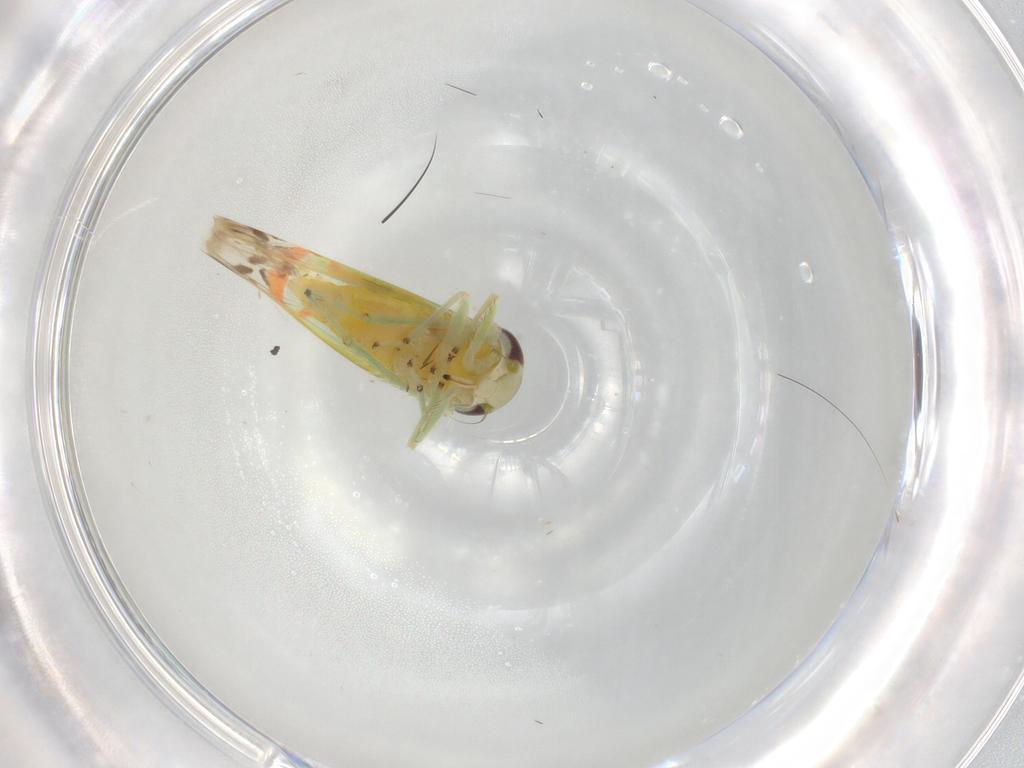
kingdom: Animalia
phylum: Arthropoda
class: Insecta
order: Hemiptera
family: Cicadellidae
